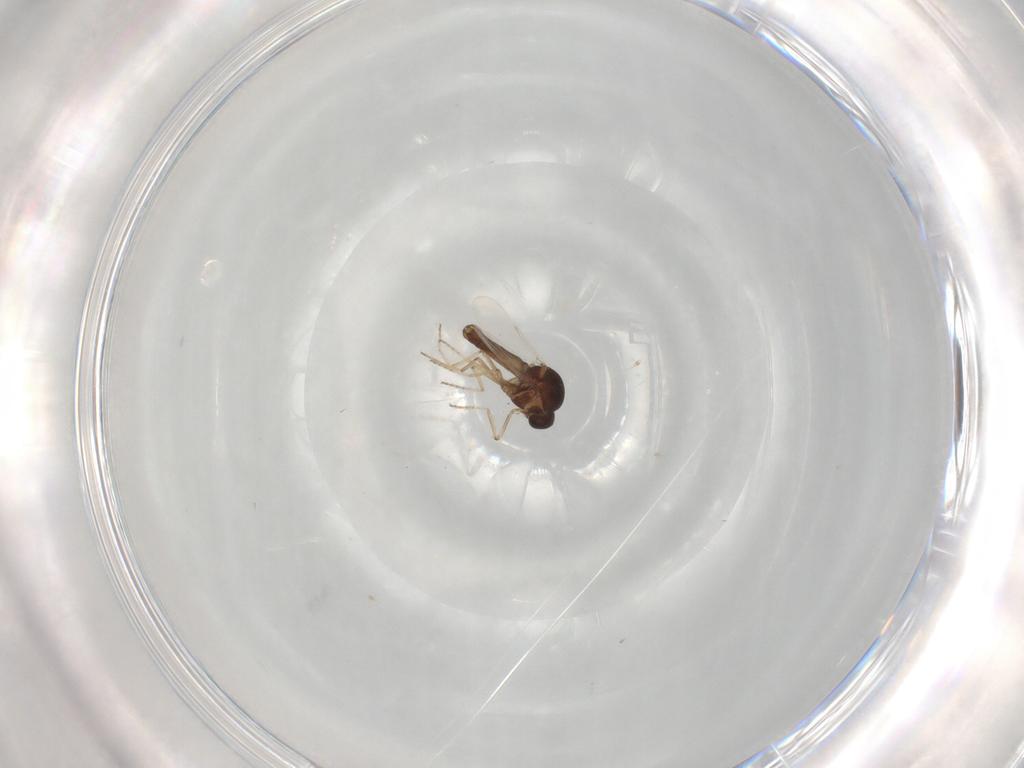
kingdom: Animalia
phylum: Arthropoda
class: Insecta
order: Diptera
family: Ceratopogonidae
